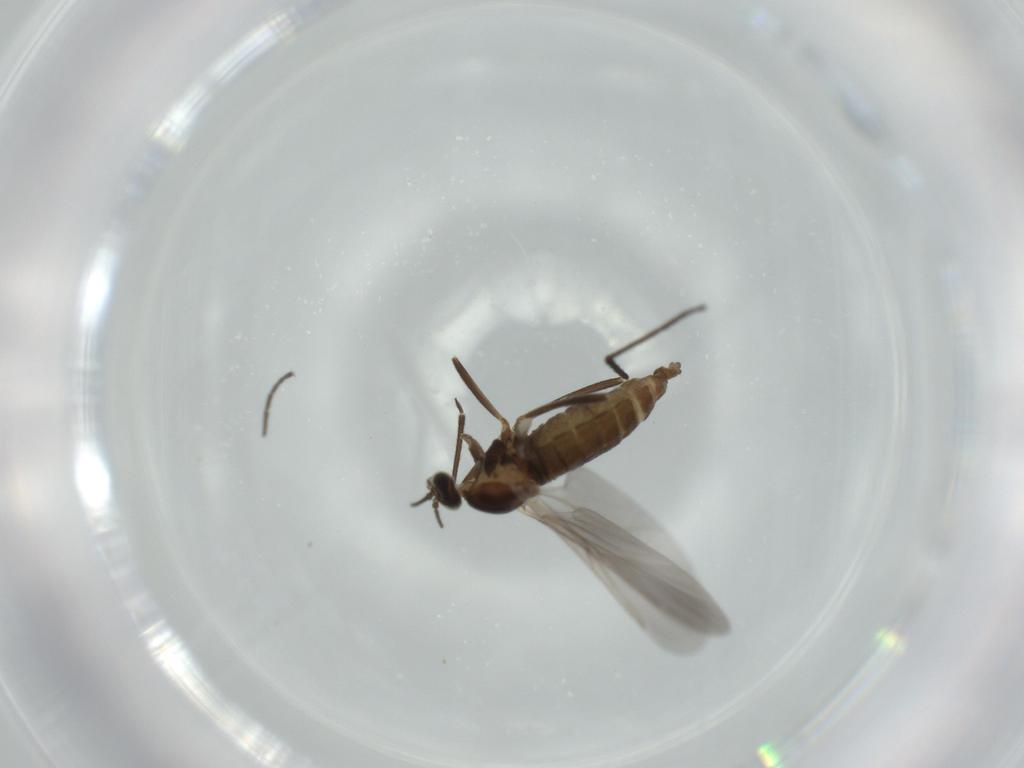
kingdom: Animalia
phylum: Arthropoda
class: Insecta
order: Diptera
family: Cecidomyiidae
